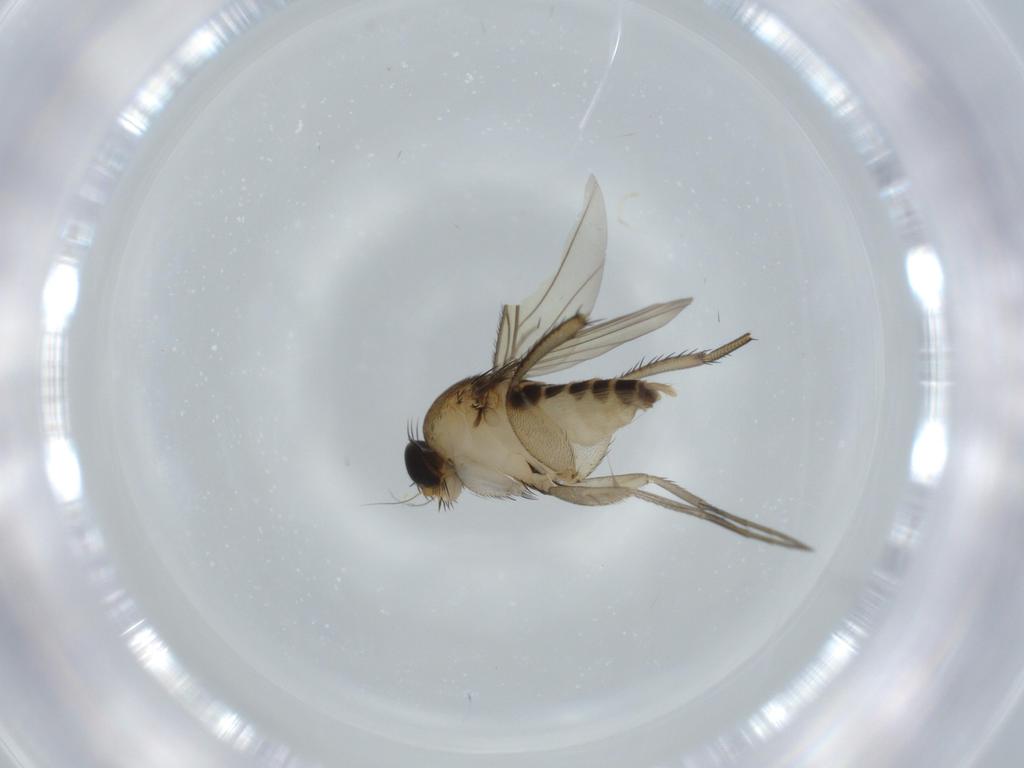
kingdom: Animalia
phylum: Arthropoda
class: Insecta
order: Diptera
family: Phoridae
